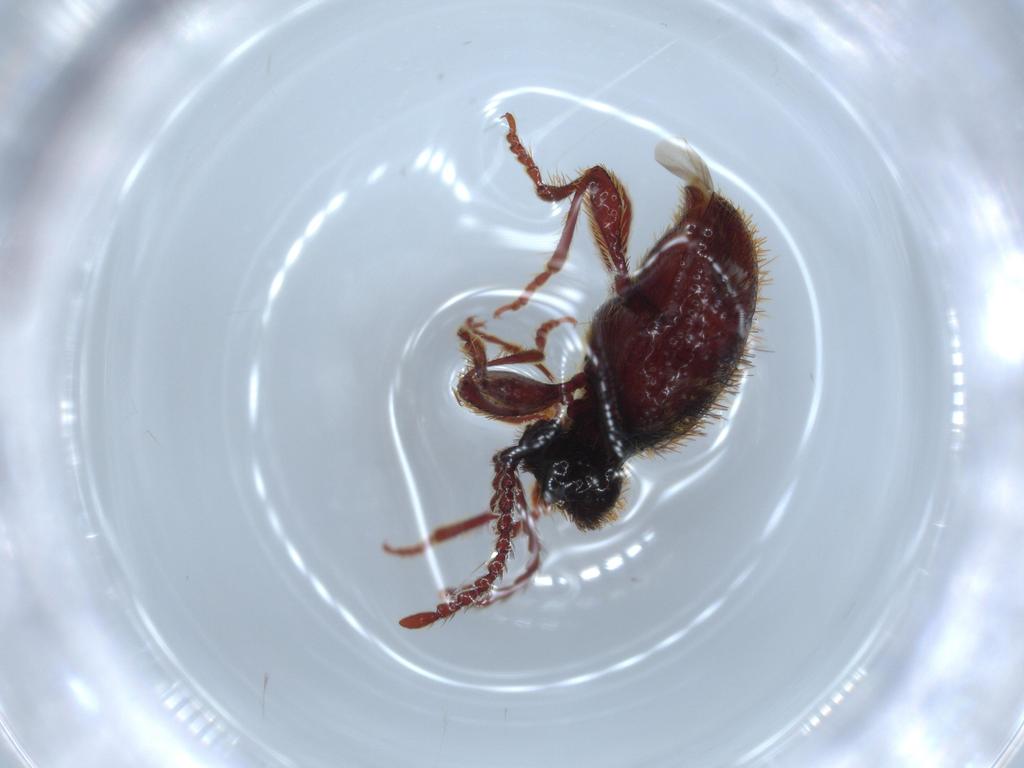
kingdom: Animalia
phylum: Arthropoda
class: Insecta
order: Coleoptera
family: Ptinidae
